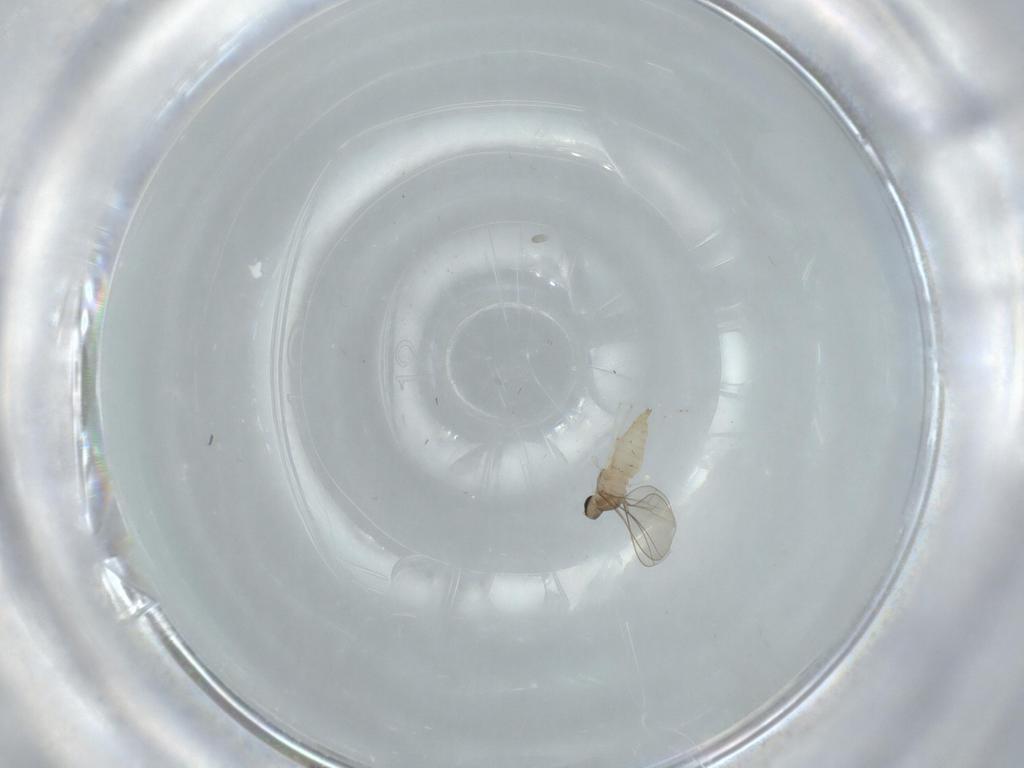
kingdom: Animalia
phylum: Arthropoda
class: Insecta
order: Diptera
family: Cecidomyiidae
